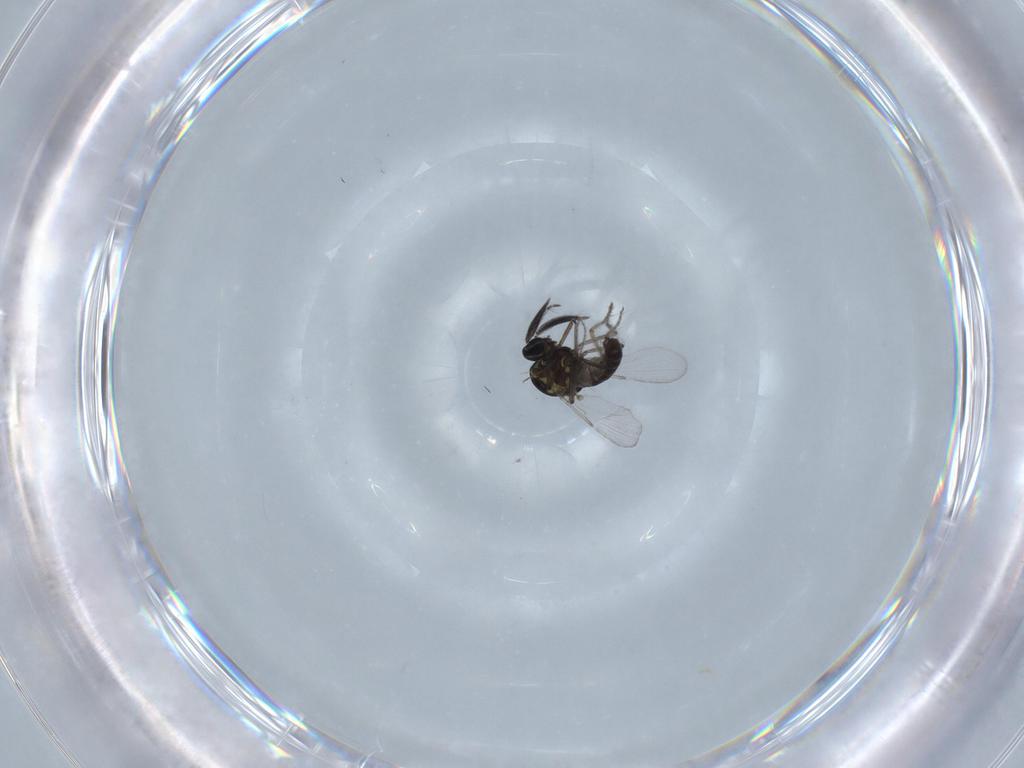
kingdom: Animalia
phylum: Arthropoda
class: Insecta
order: Diptera
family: Ceratopogonidae
